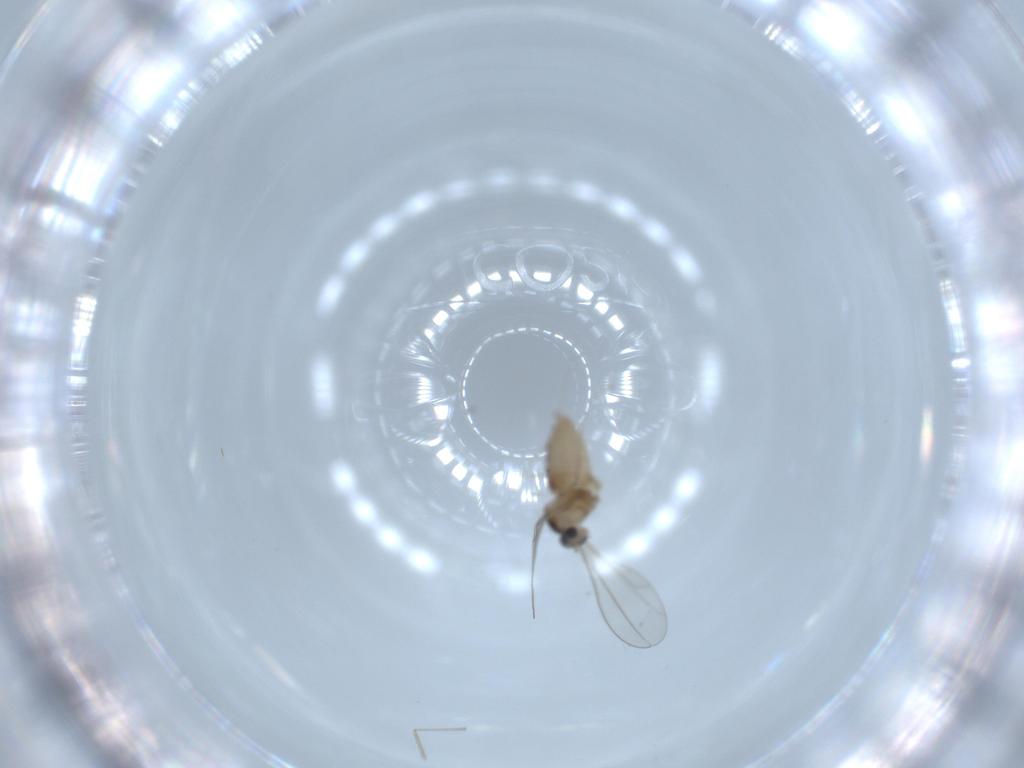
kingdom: Animalia
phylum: Arthropoda
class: Insecta
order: Diptera
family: Cecidomyiidae
